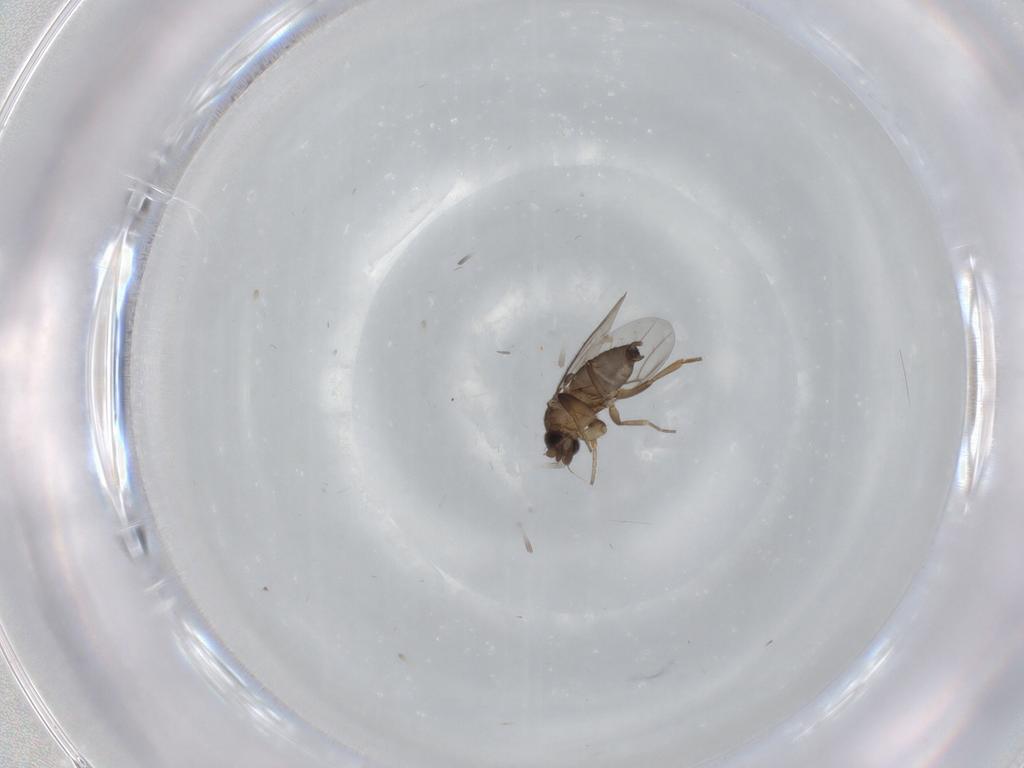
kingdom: Animalia
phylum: Arthropoda
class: Insecta
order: Diptera
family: Phoridae
